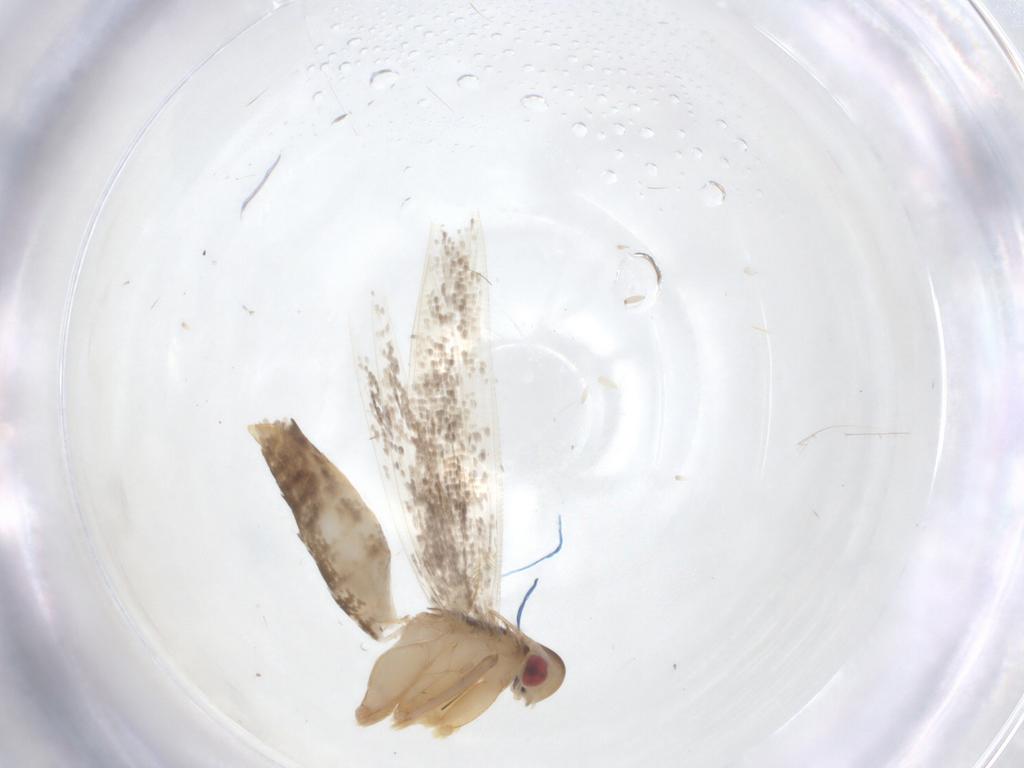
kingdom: Animalia
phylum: Arthropoda
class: Insecta
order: Lepidoptera
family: Cosmopterigidae
